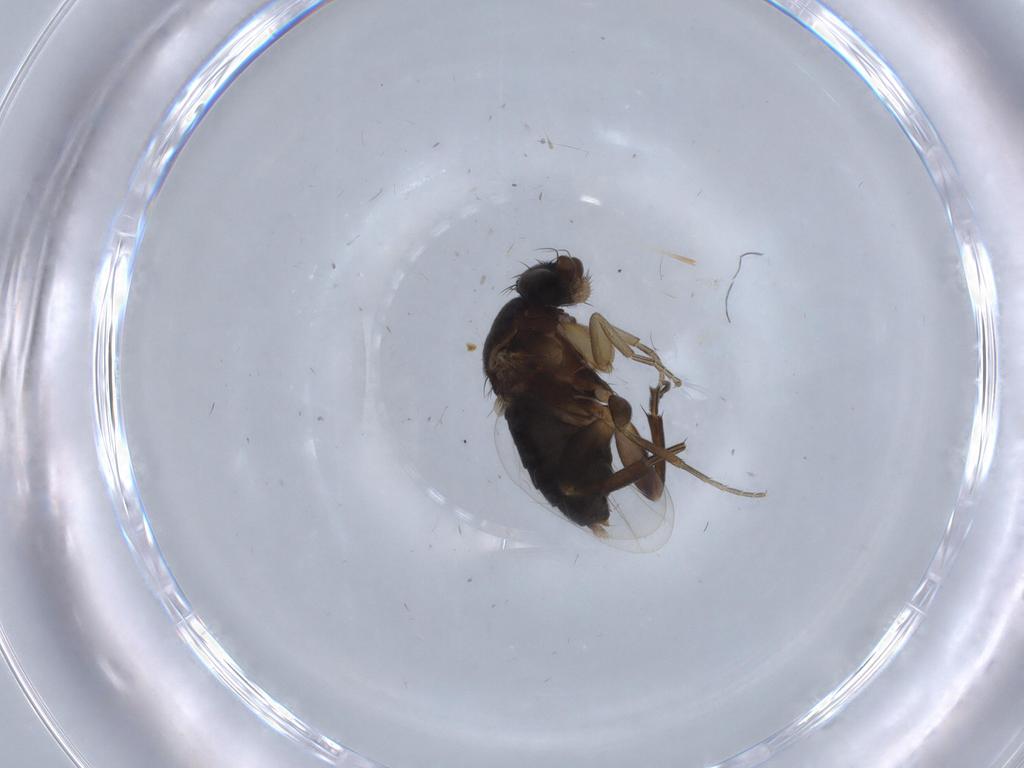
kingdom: Animalia
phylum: Arthropoda
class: Insecta
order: Diptera
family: Phoridae
